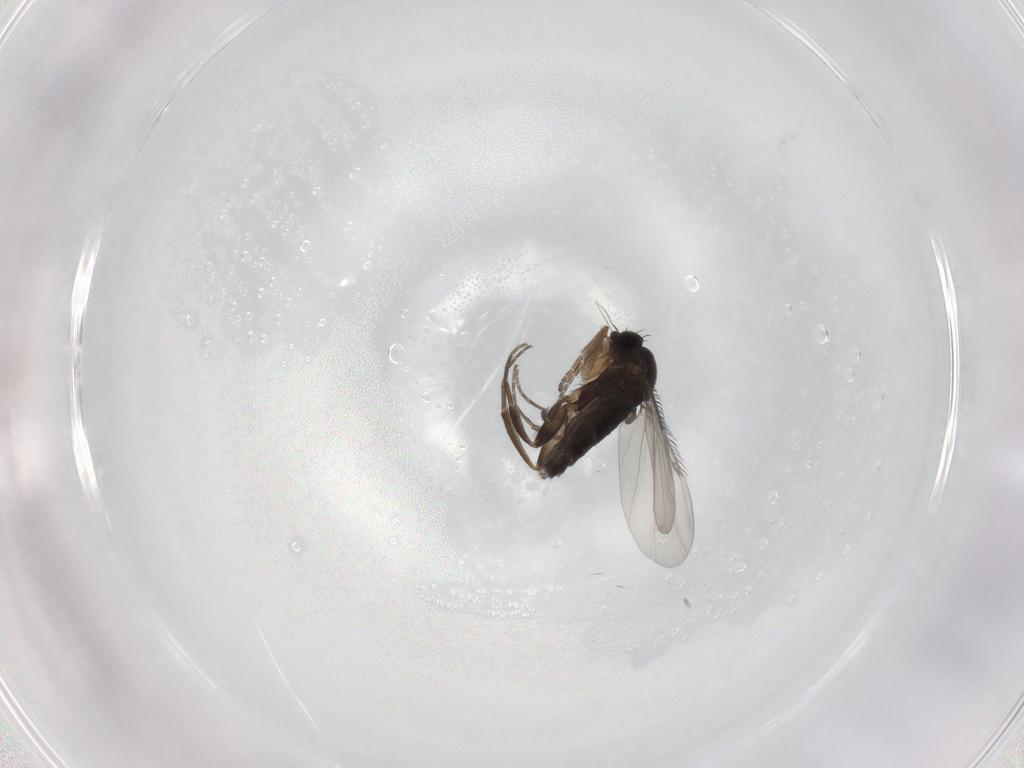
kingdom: Animalia
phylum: Arthropoda
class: Insecta
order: Diptera
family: Phoridae
